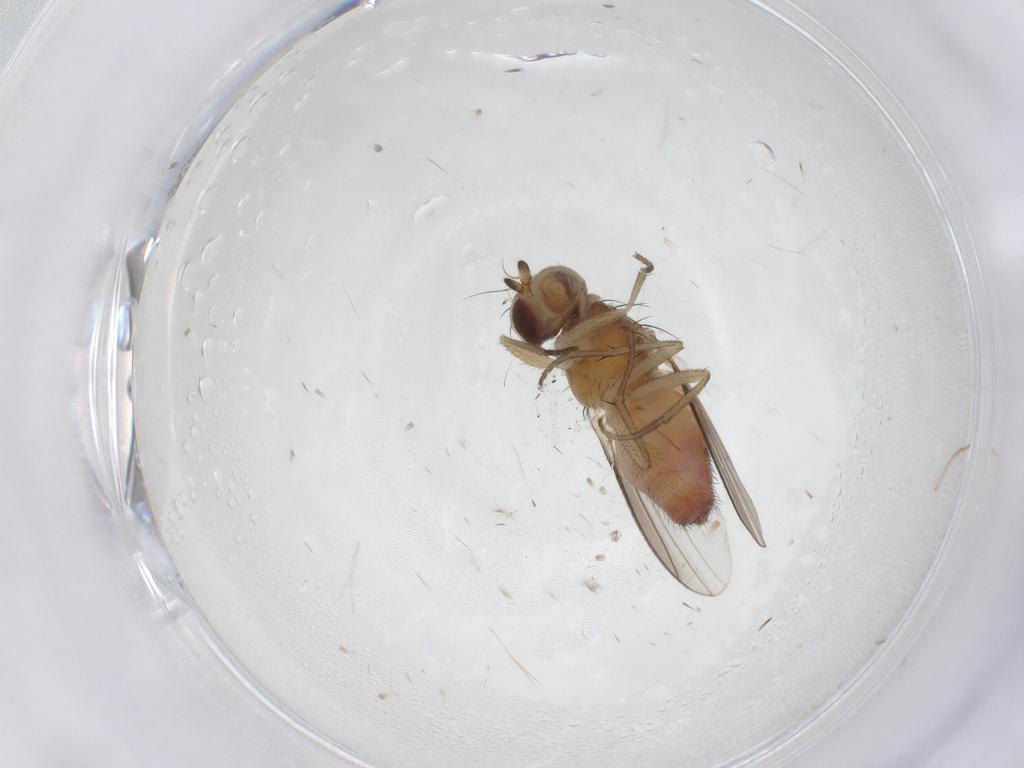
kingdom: Animalia
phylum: Arthropoda
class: Insecta
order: Diptera
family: Heleomyzidae
